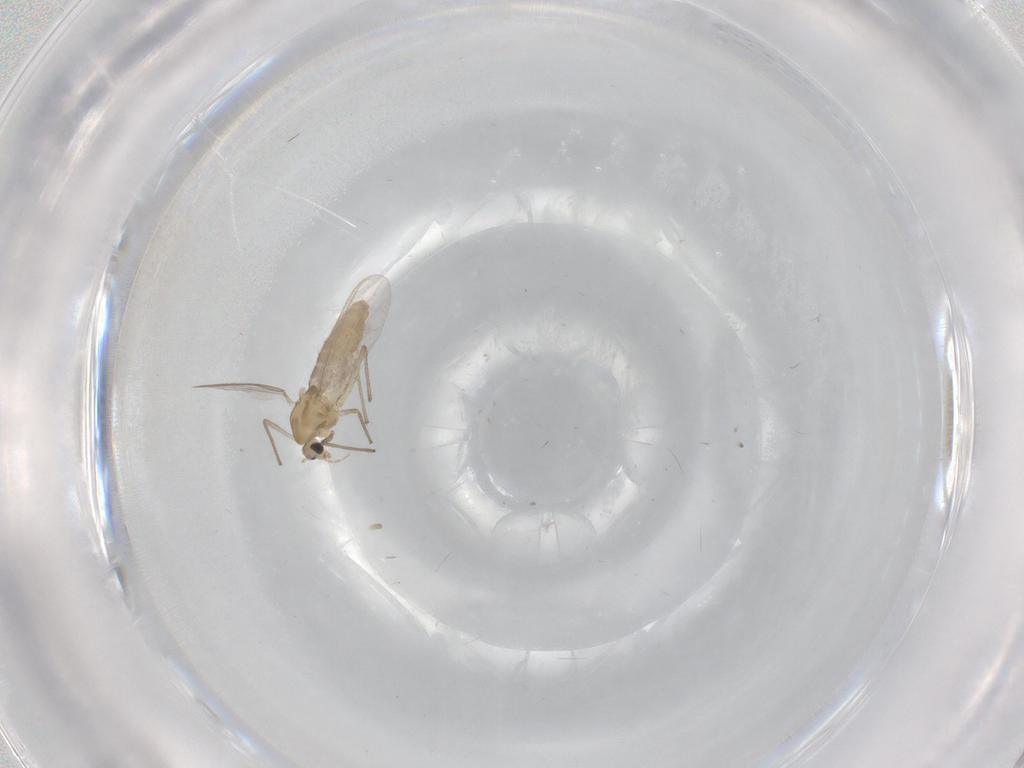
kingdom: Animalia
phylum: Arthropoda
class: Insecta
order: Diptera
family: Chironomidae
